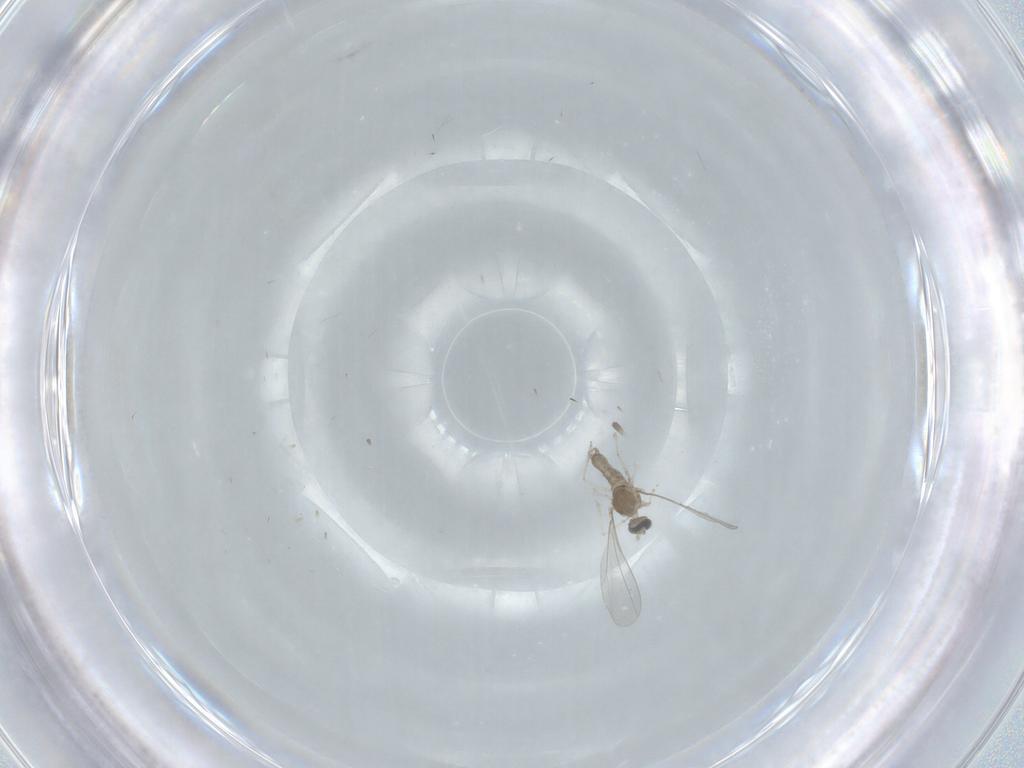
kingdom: Animalia
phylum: Arthropoda
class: Insecta
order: Diptera
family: Cecidomyiidae
